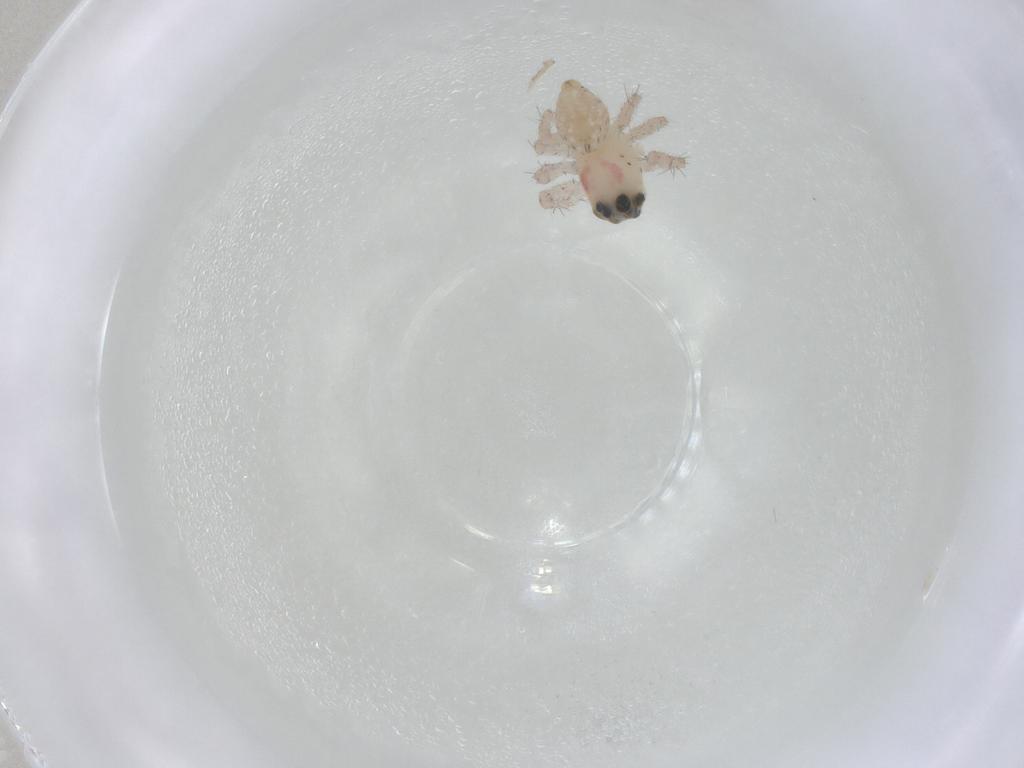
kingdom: Animalia
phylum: Arthropoda
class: Arachnida
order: Araneae
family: Oxyopidae
